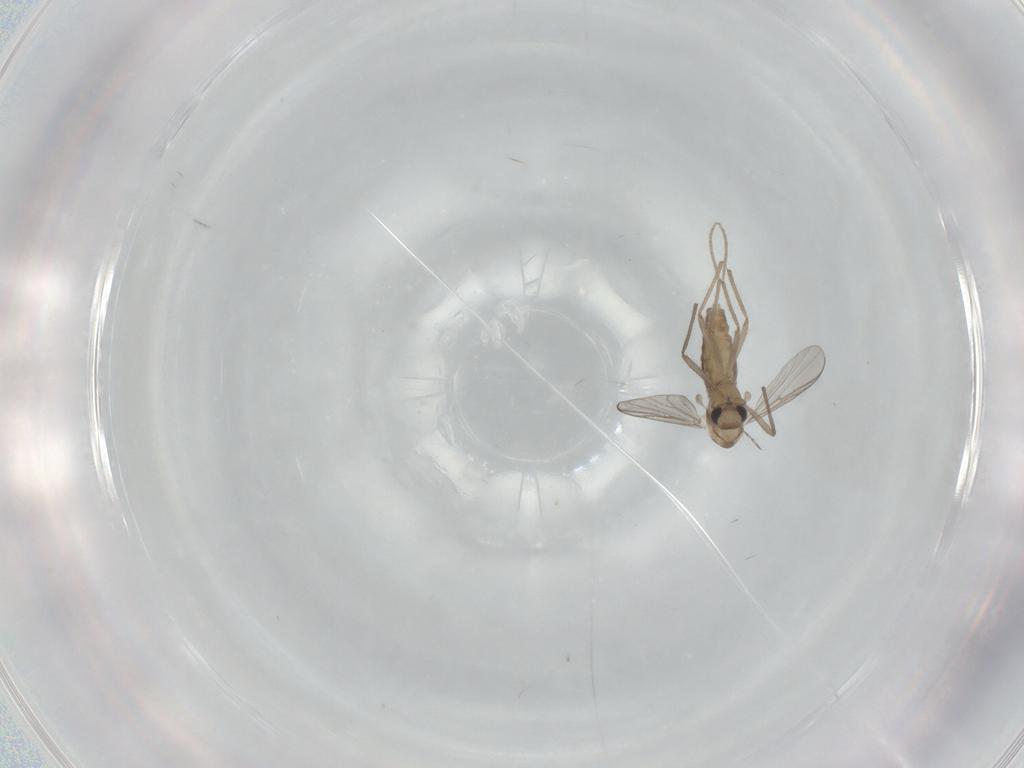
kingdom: Animalia
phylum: Arthropoda
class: Insecta
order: Diptera
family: Chironomidae
